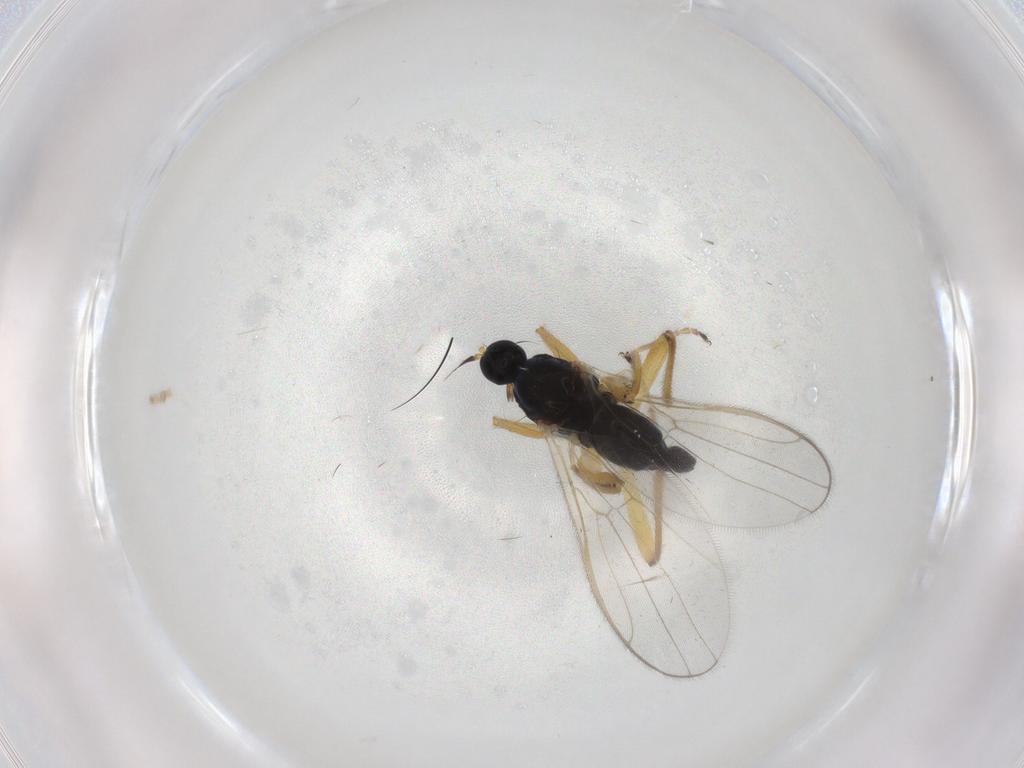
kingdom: Animalia
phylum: Arthropoda
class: Insecta
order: Diptera
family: Hybotidae
